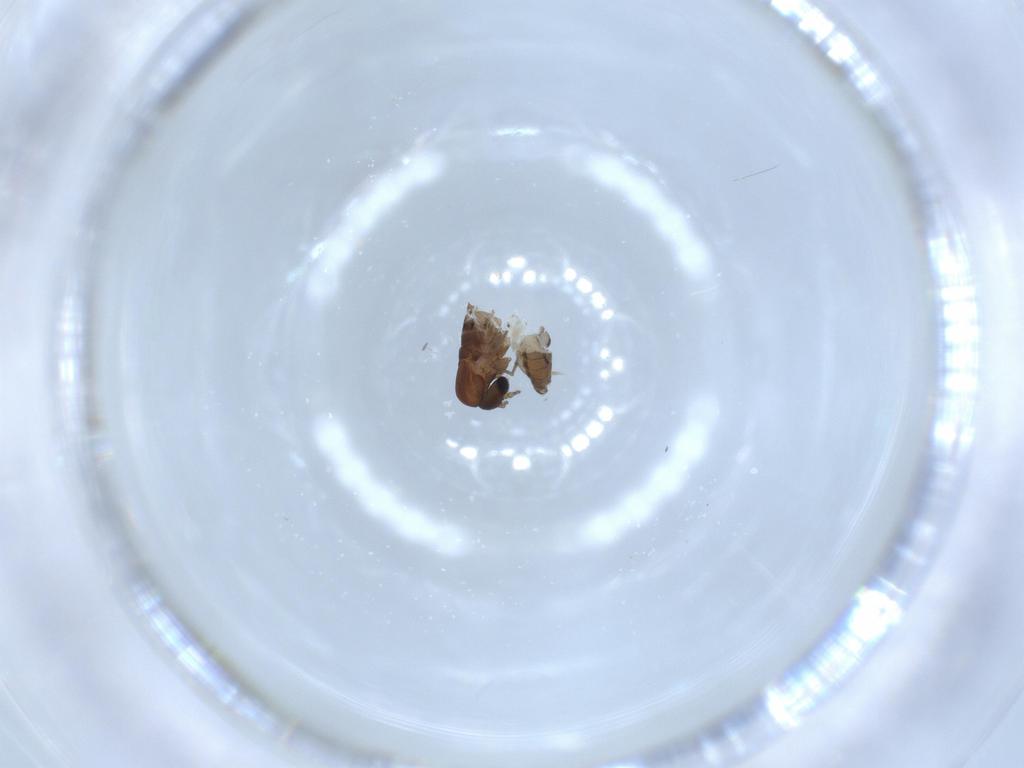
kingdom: Animalia
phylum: Arthropoda
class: Insecta
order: Diptera
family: Psychodidae
